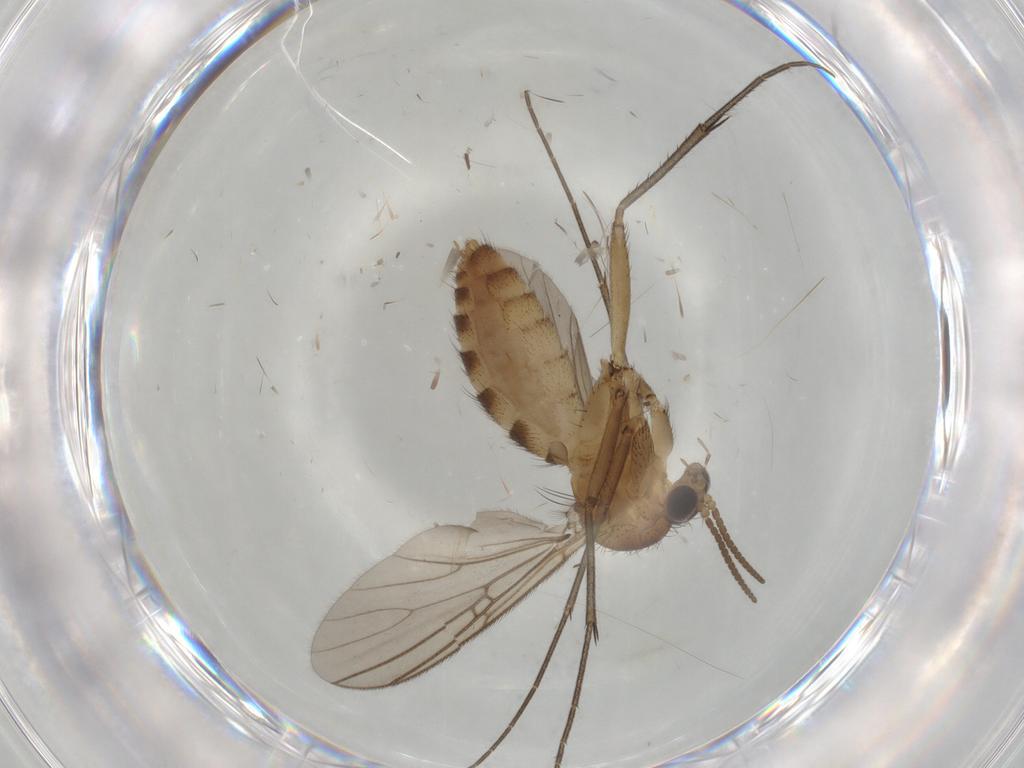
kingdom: Animalia
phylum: Arthropoda
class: Insecta
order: Diptera
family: Mycetophilidae
